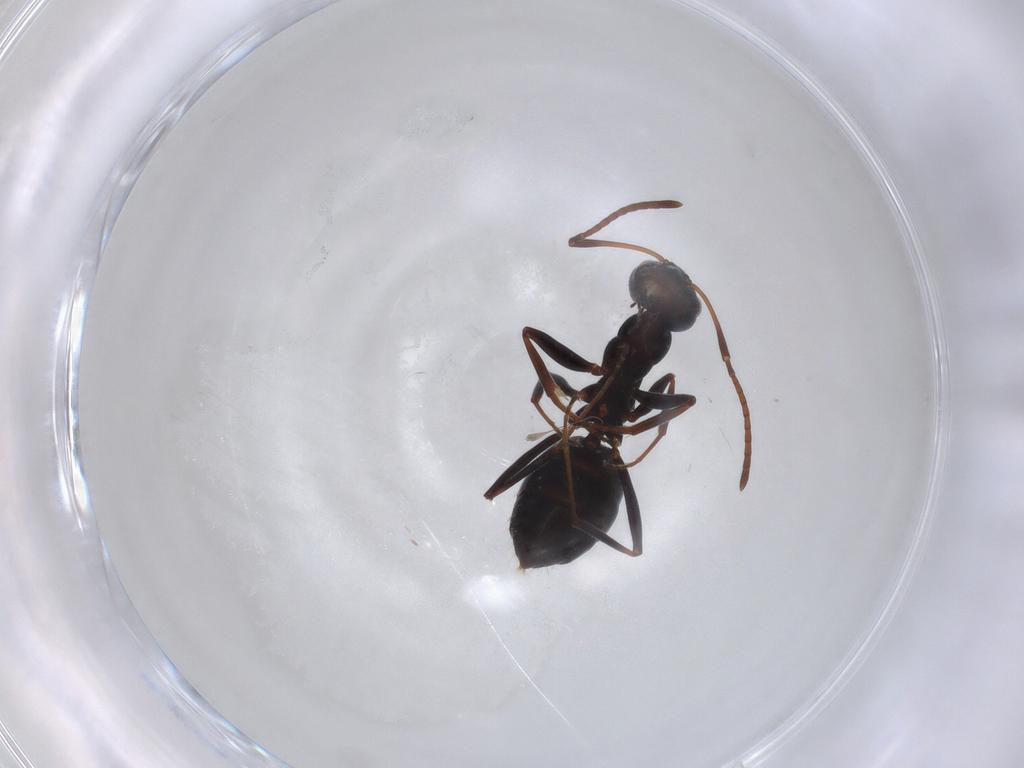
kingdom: Animalia
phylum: Arthropoda
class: Insecta
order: Hymenoptera
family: Formicidae
